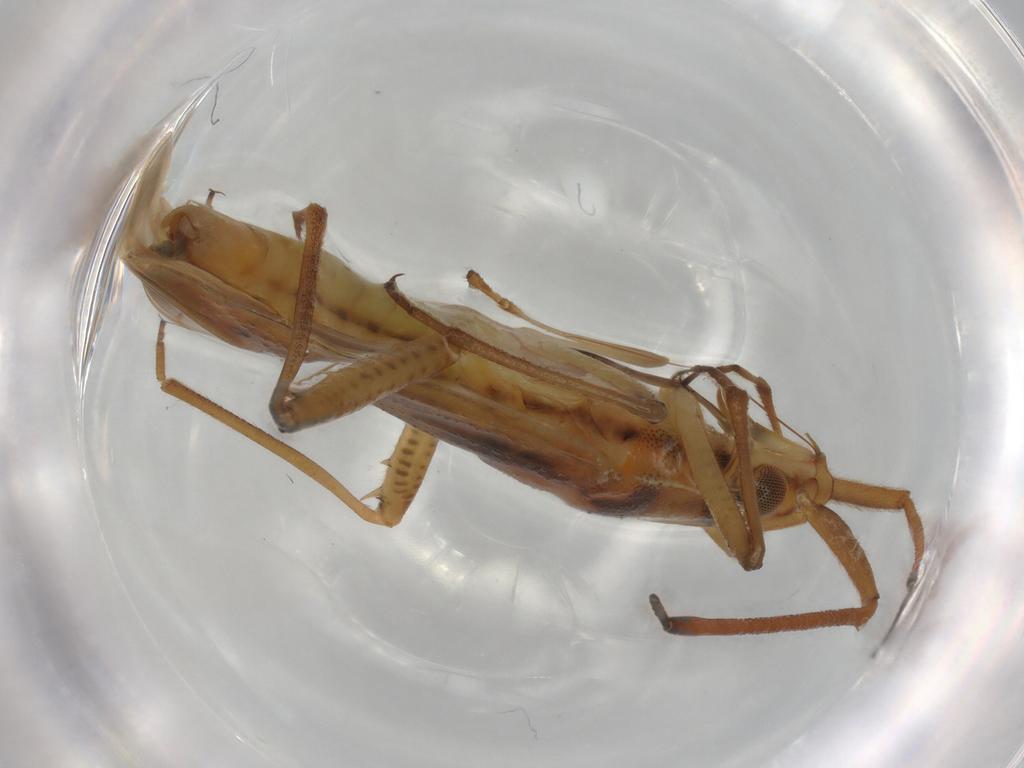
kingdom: Animalia
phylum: Arthropoda
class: Insecta
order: Hemiptera
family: Miridae
